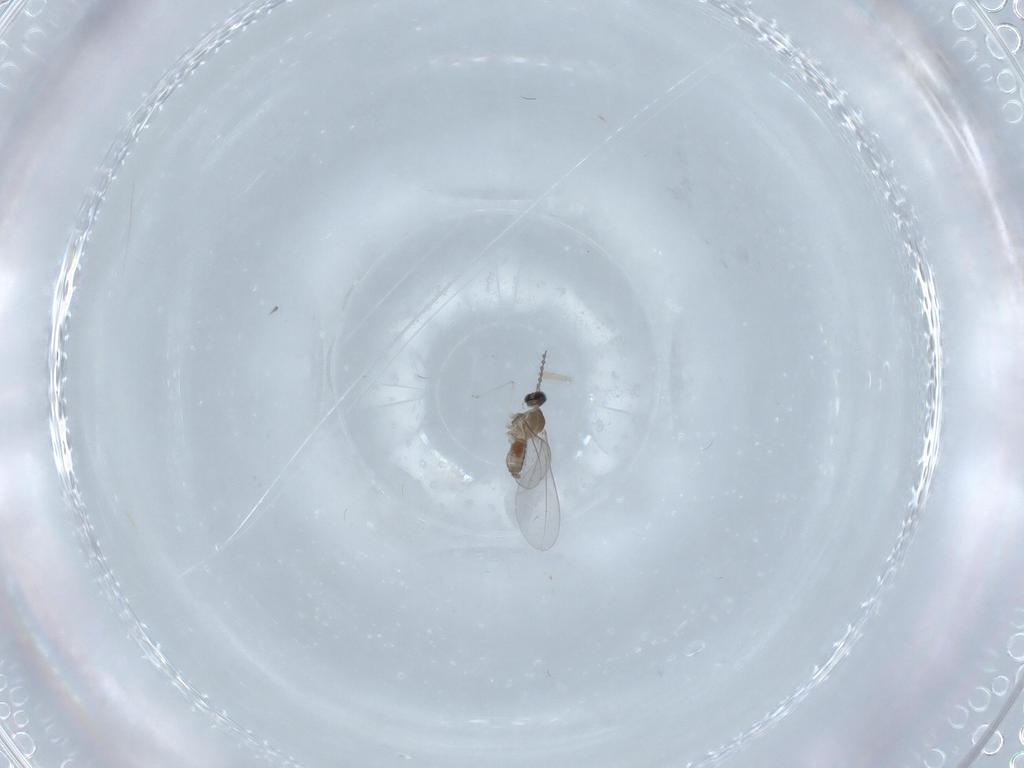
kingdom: Animalia
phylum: Arthropoda
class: Insecta
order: Diptera
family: Cecidomyiidae
